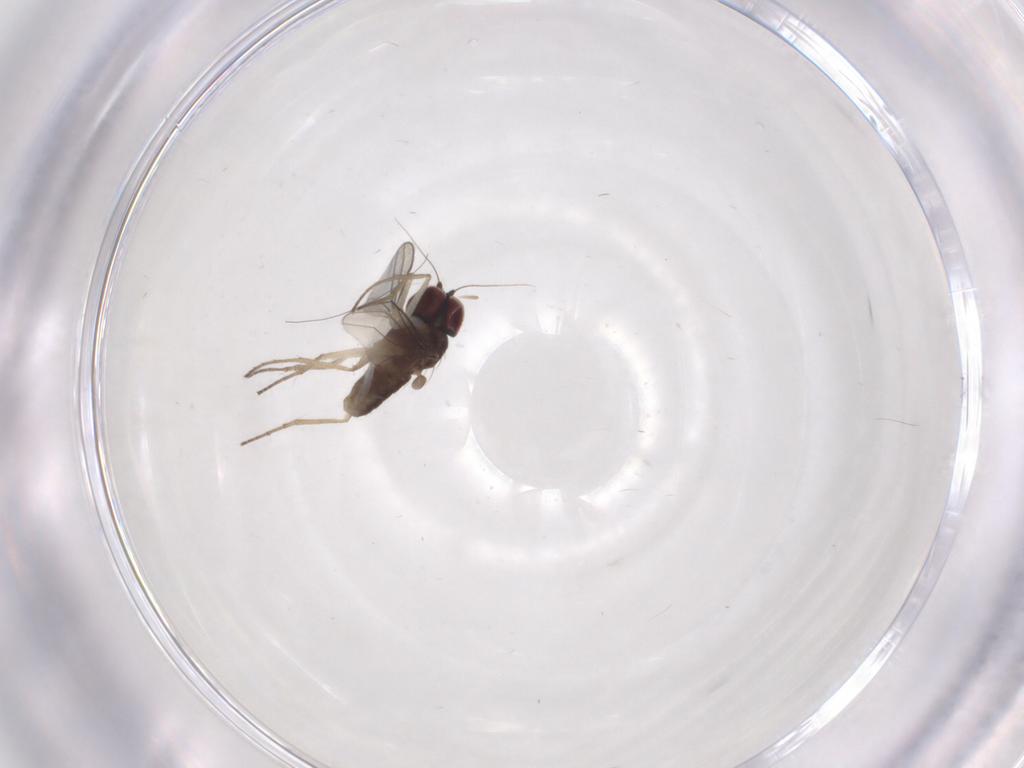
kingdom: Animalia
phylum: Arthropoda
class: Insecta
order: Diptera
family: Dolichopodidae
